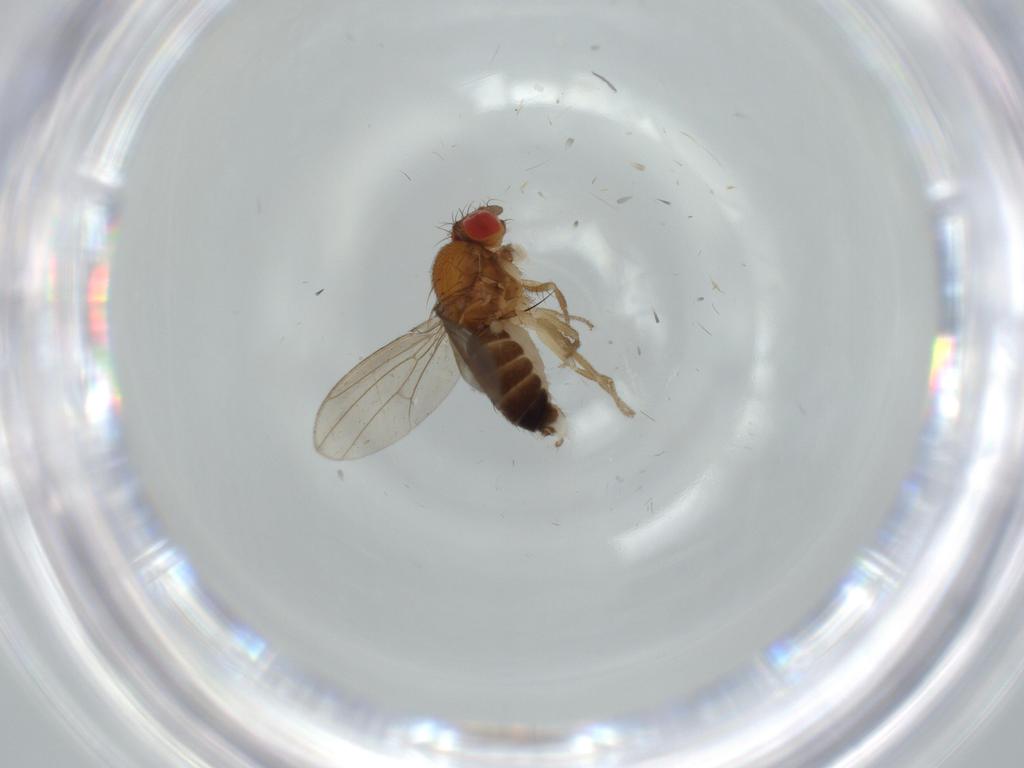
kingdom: Animalia
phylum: Arthropoda
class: Insecta
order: Diptera
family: Drosophilidae
